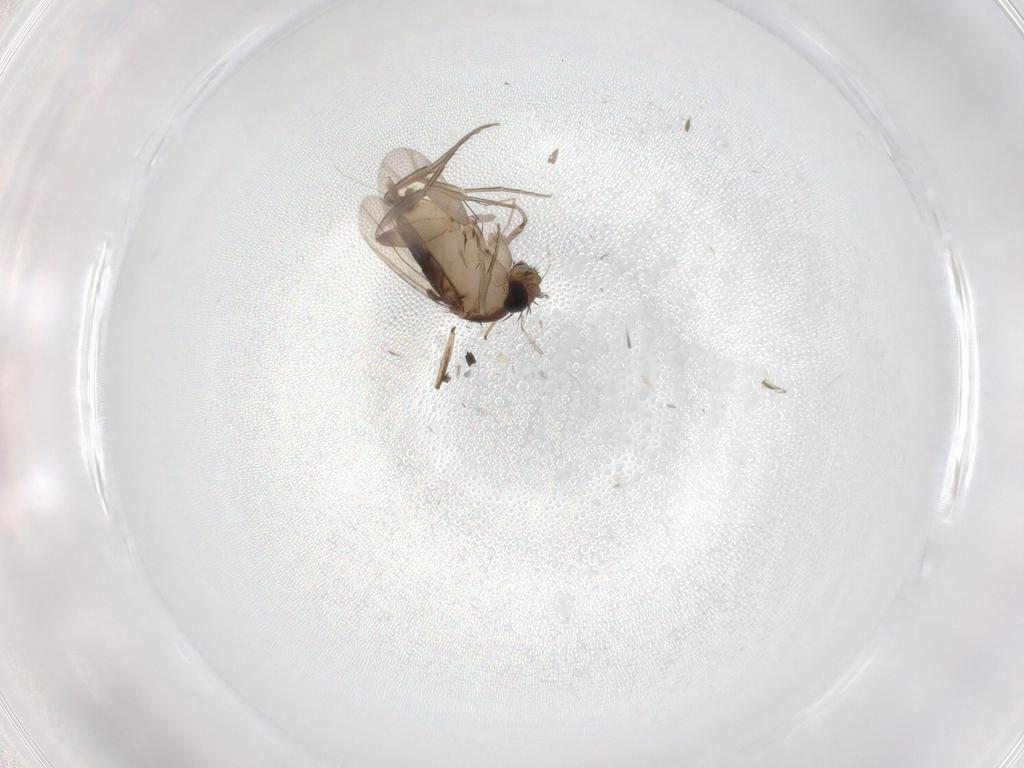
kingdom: Animalia
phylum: Arthropoda
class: Insecta
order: Diptera
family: Phoridae
